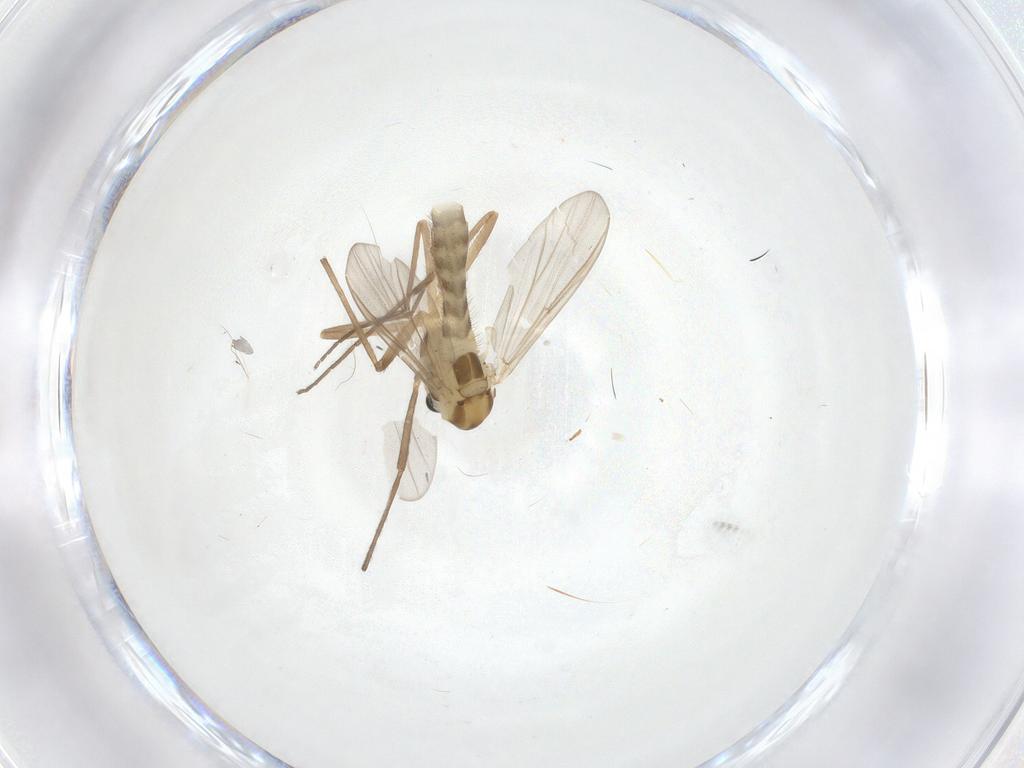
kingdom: Animalia
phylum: Arthropoda
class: Insecta
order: Diptera
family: Chironomidae
